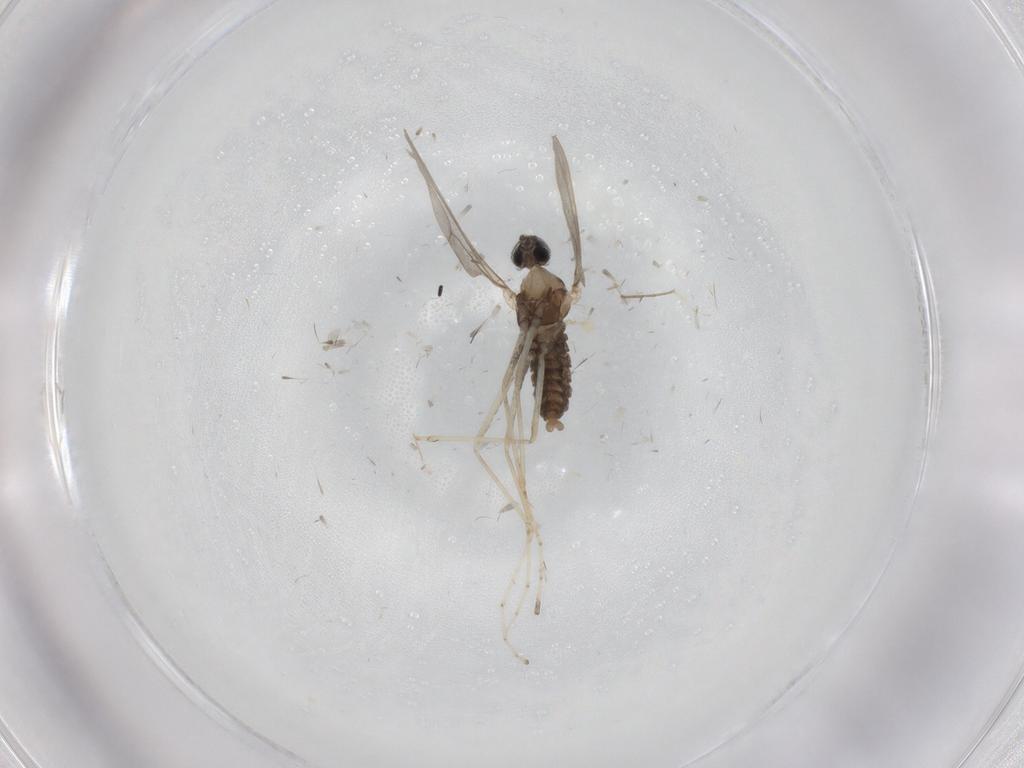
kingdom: Animalia
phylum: Arthropoda
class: Insecta
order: Diptera
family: Cecidomyiidae
